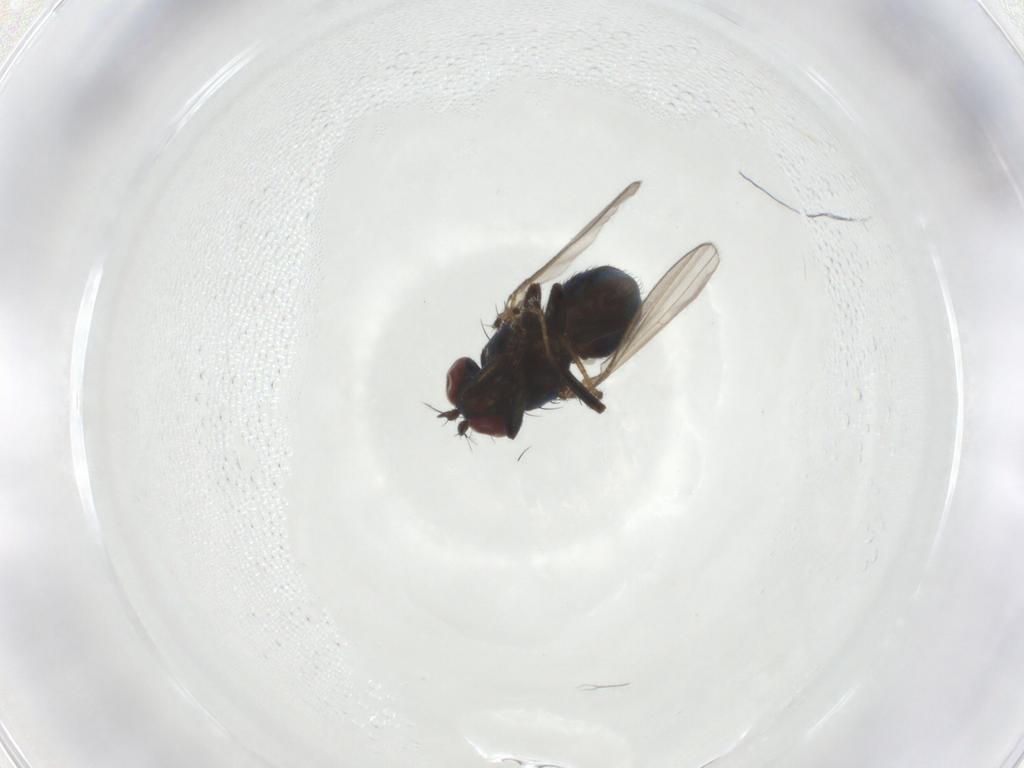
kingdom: Animalia
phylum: Arthropoda
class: Insecta
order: Diptera
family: Ephydridae
